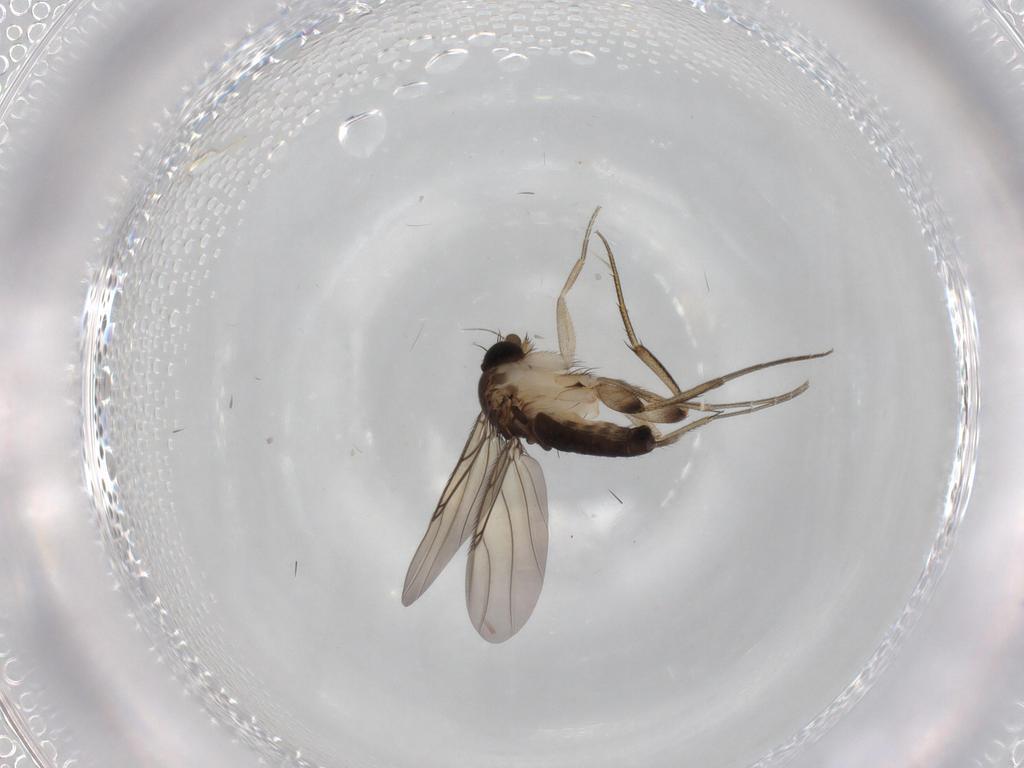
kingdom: Animalia
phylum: Arthropoda
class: Insecta
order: Diptera
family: Phoridae
